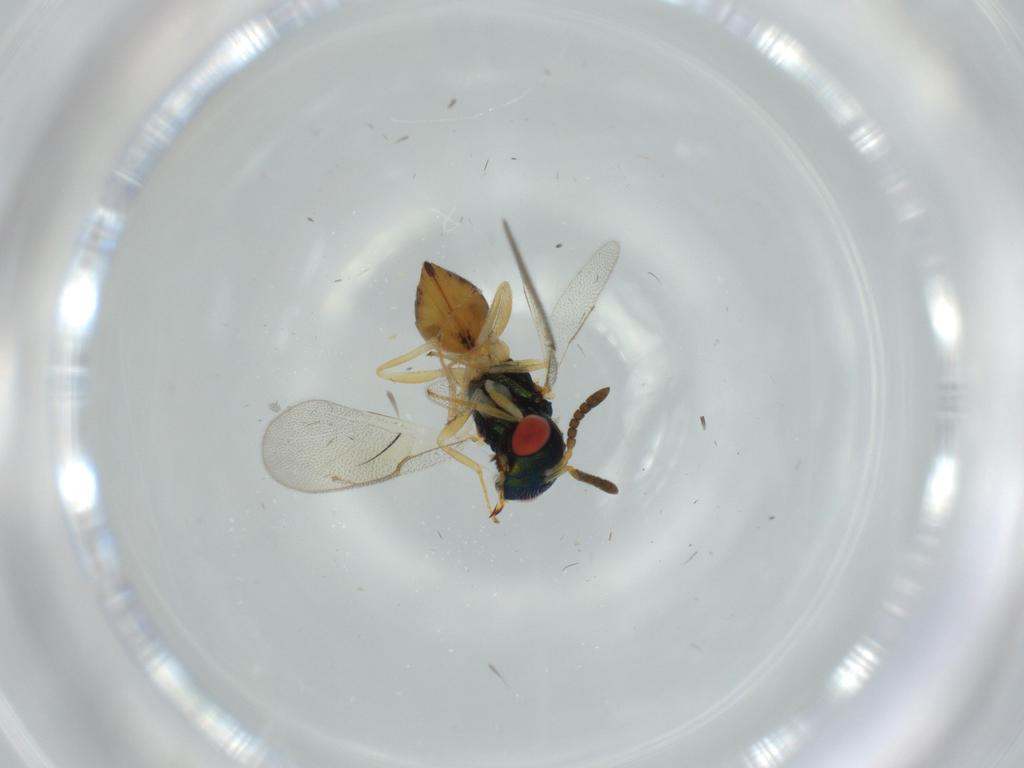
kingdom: Animalia
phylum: Arthropoda
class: Insecta
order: Hymenoptera
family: Pteromalidae
